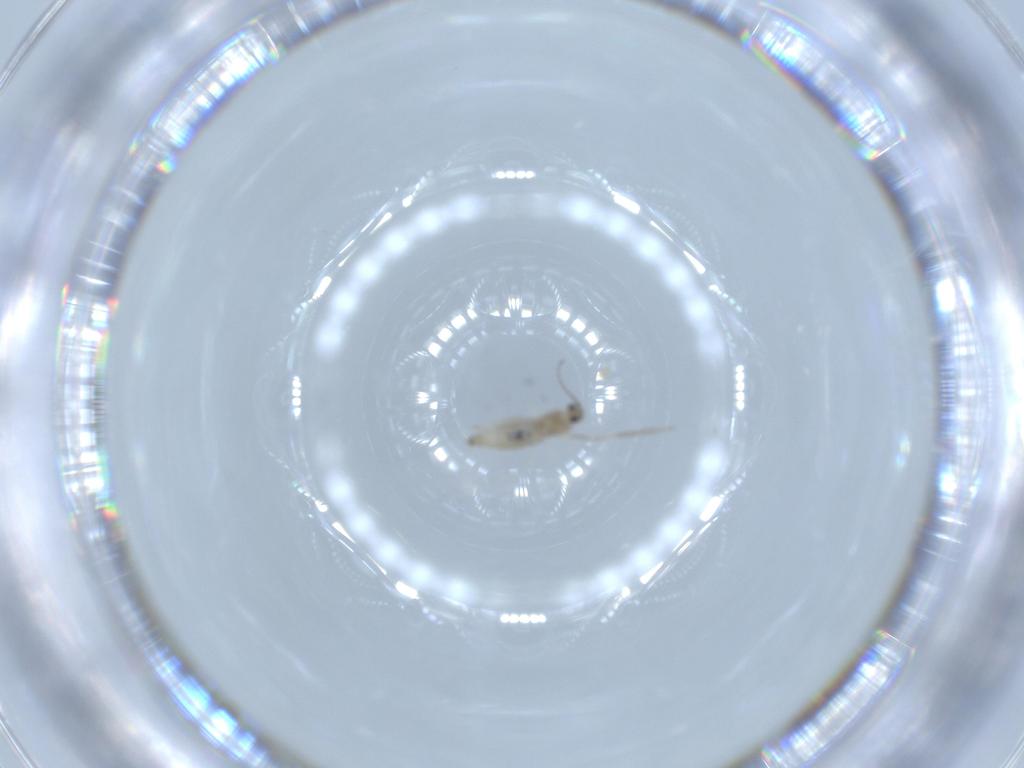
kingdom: Animalia
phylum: Arthropoda
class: Insecta
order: Diptera
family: Cecidomyiidae
